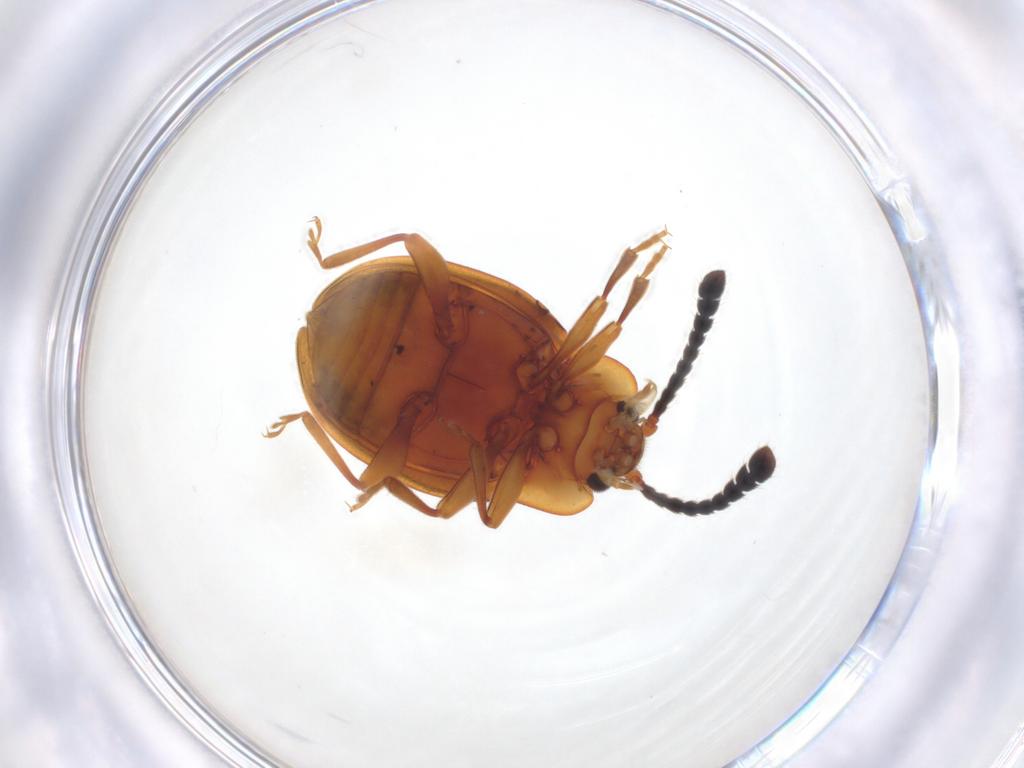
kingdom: Animalia
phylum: Arthropoda
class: Insecta
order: Coleoptera
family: Endomychidae
